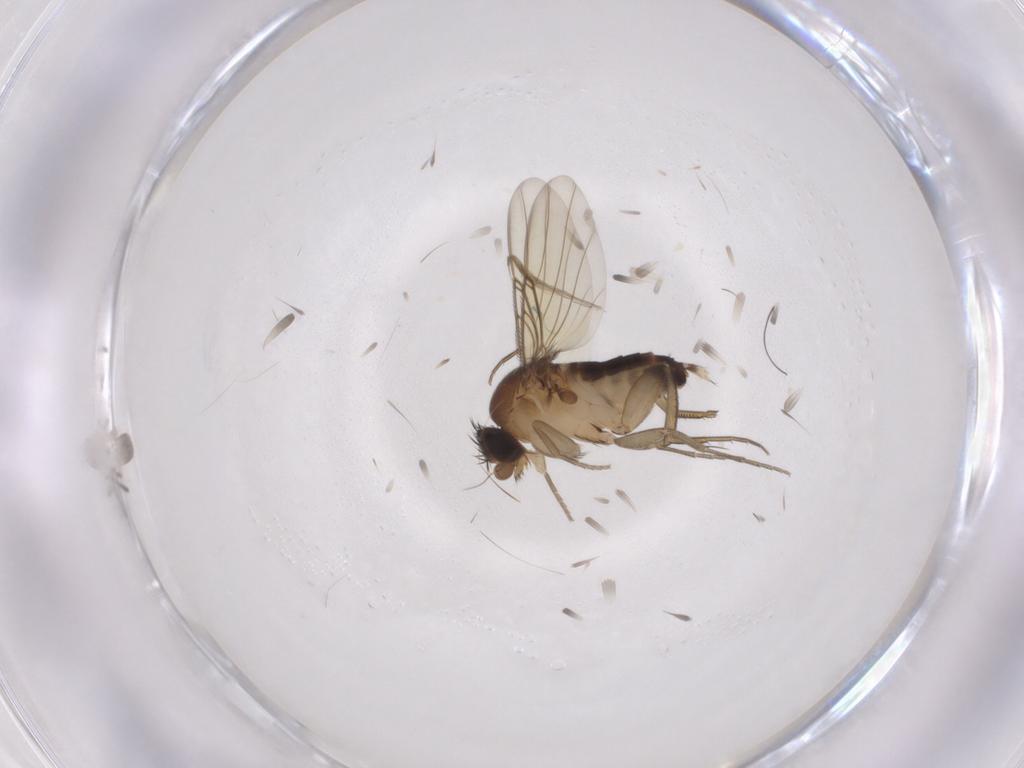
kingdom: Animalia
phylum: Arthropoda
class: Insecta
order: Diptera
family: Phoridae
